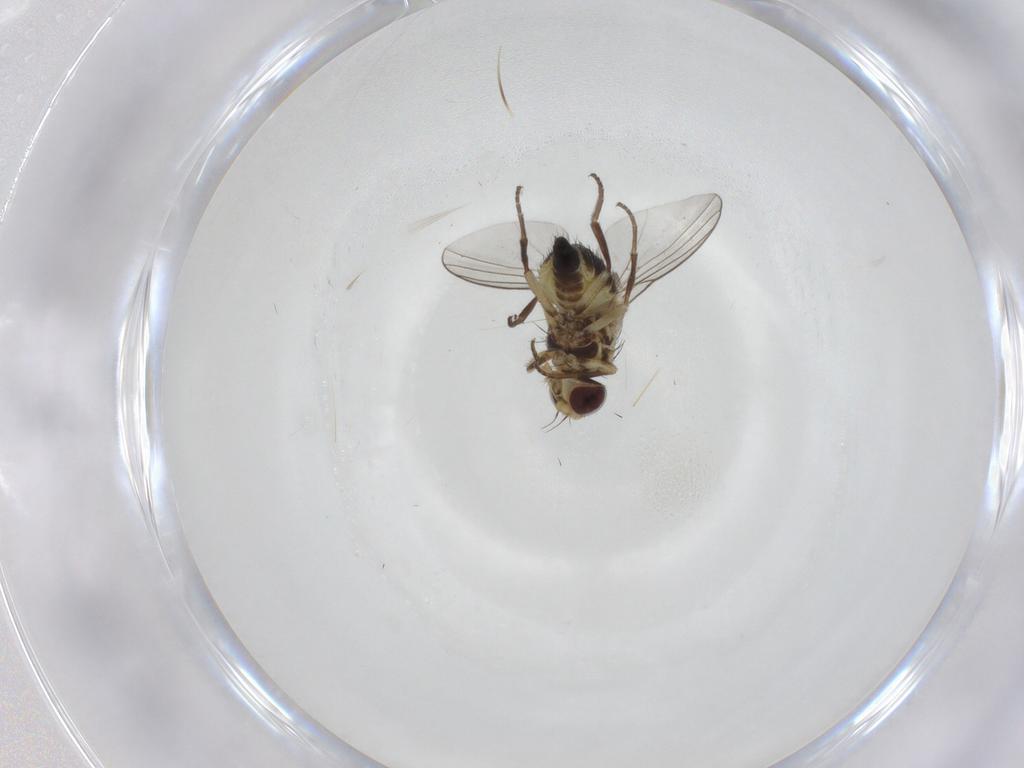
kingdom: Animalia
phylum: Arthropoda
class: Insecta
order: Diptera
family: Agromyzidae
